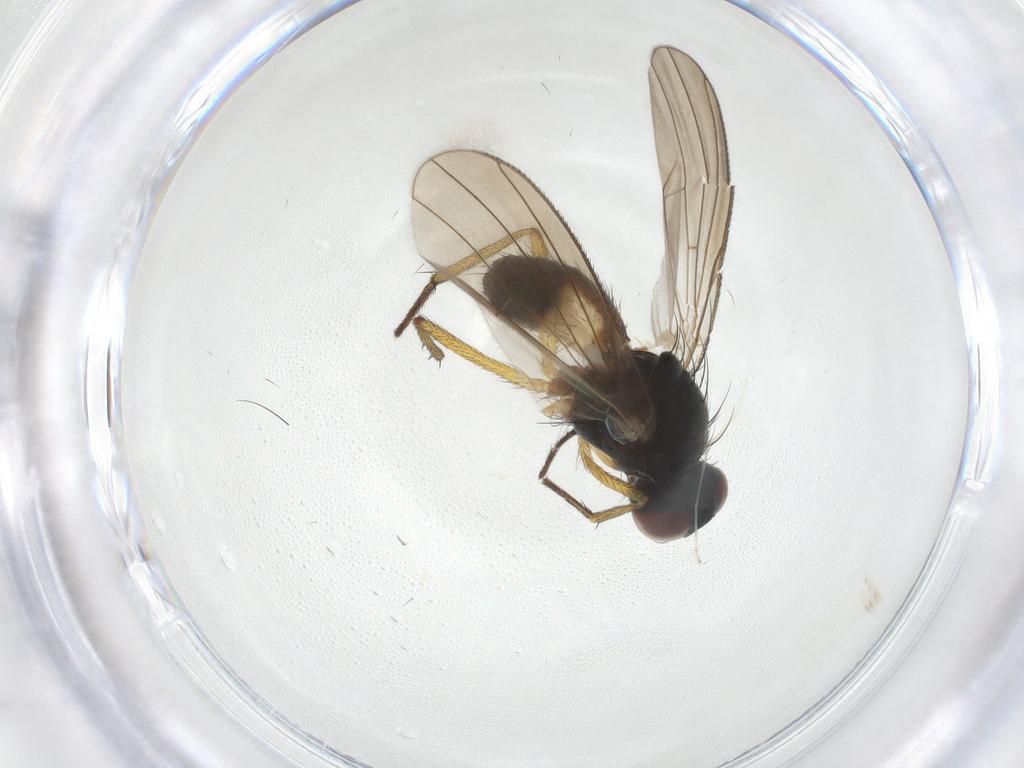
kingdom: Animalia
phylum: Arthropoda
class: Insecta
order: Diptera
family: Muscidae
